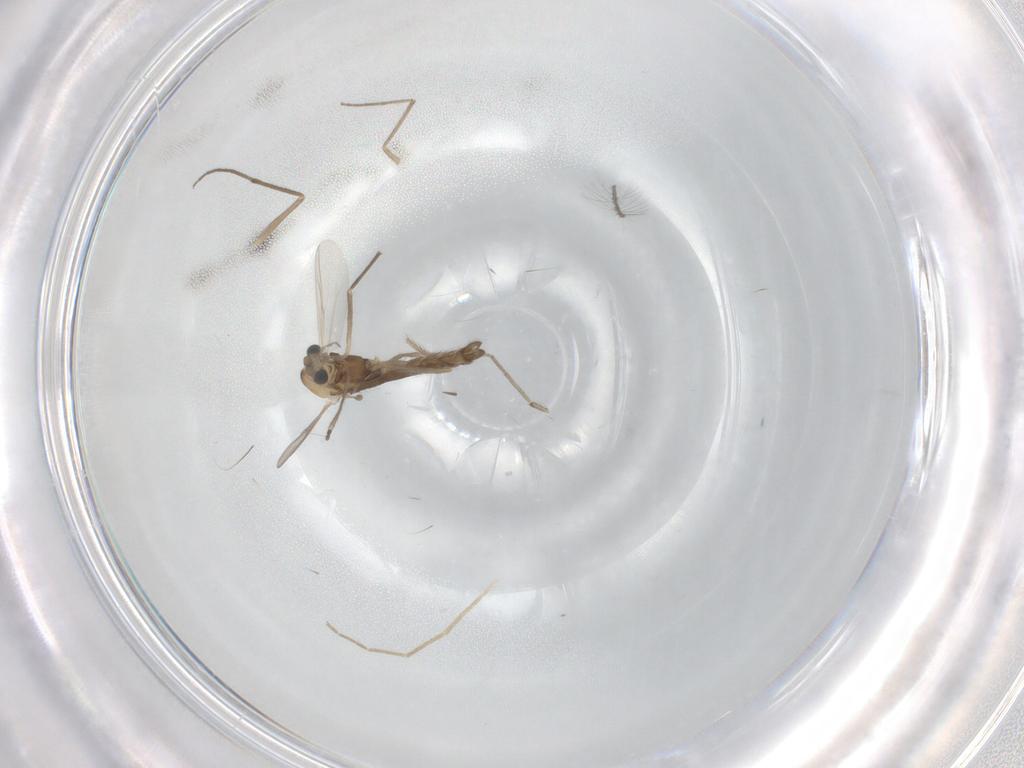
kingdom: Animalia
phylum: Arthropoda
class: Insecta
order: Diptera
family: Chironomidae
